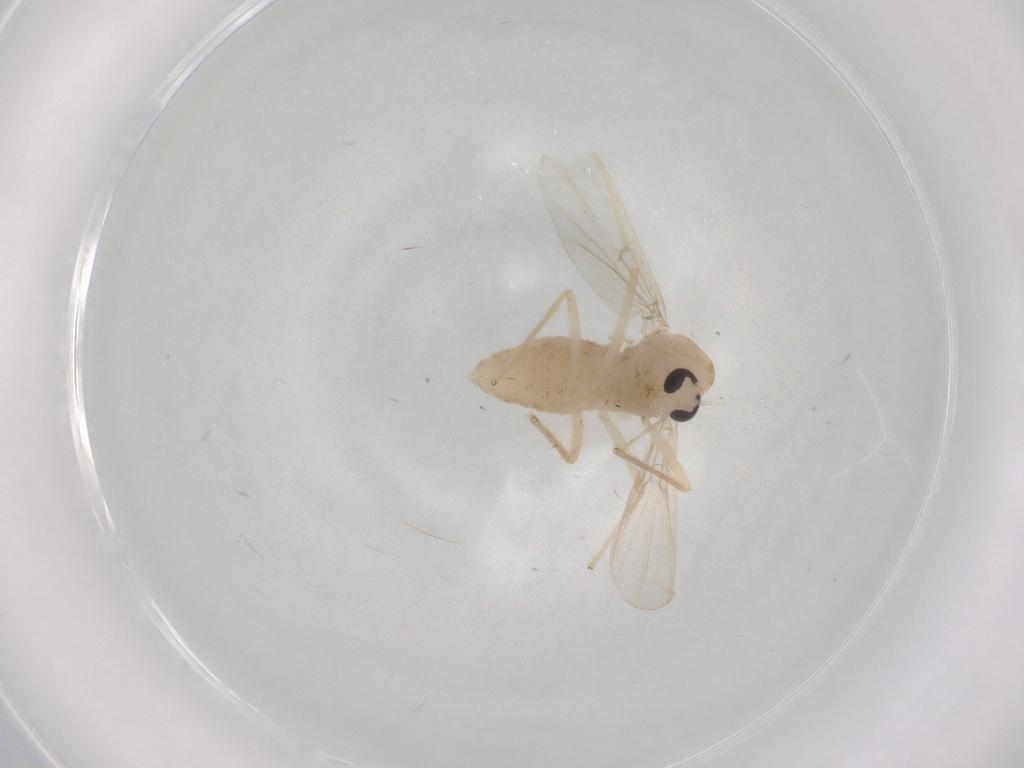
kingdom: Animalia
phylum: Arthropoda
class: Insecta
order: Diptera
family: Chironomidae
